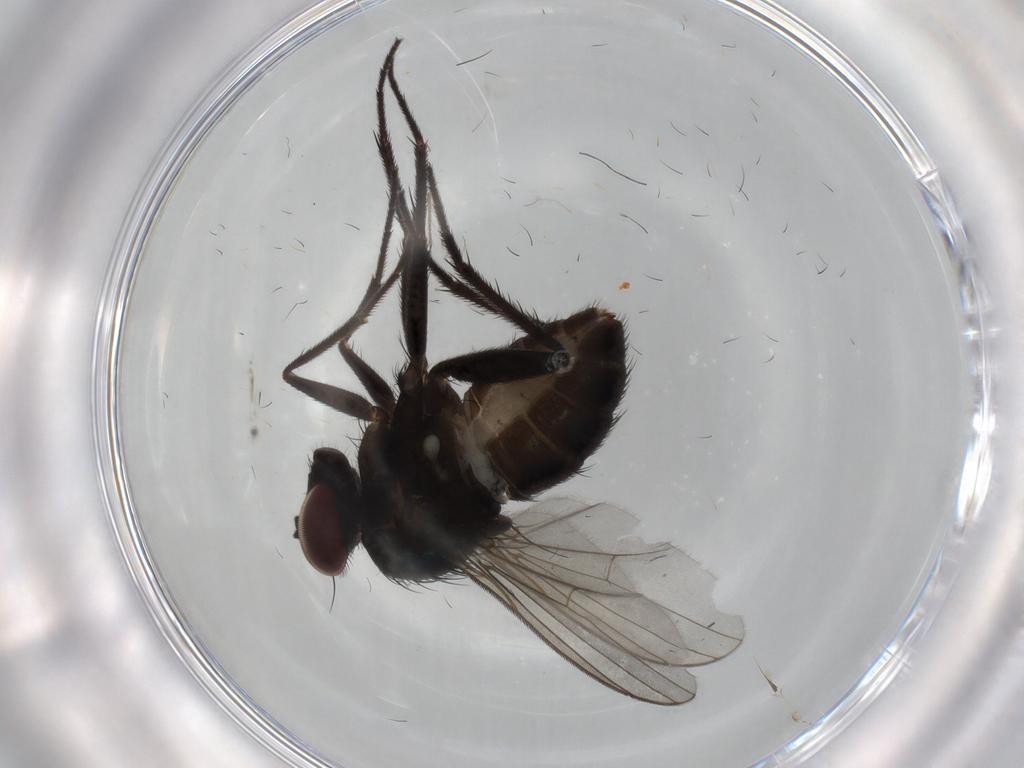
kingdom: Animalia
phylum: Arthropoda
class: Insecta
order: Diptera
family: Dolichopodidae
